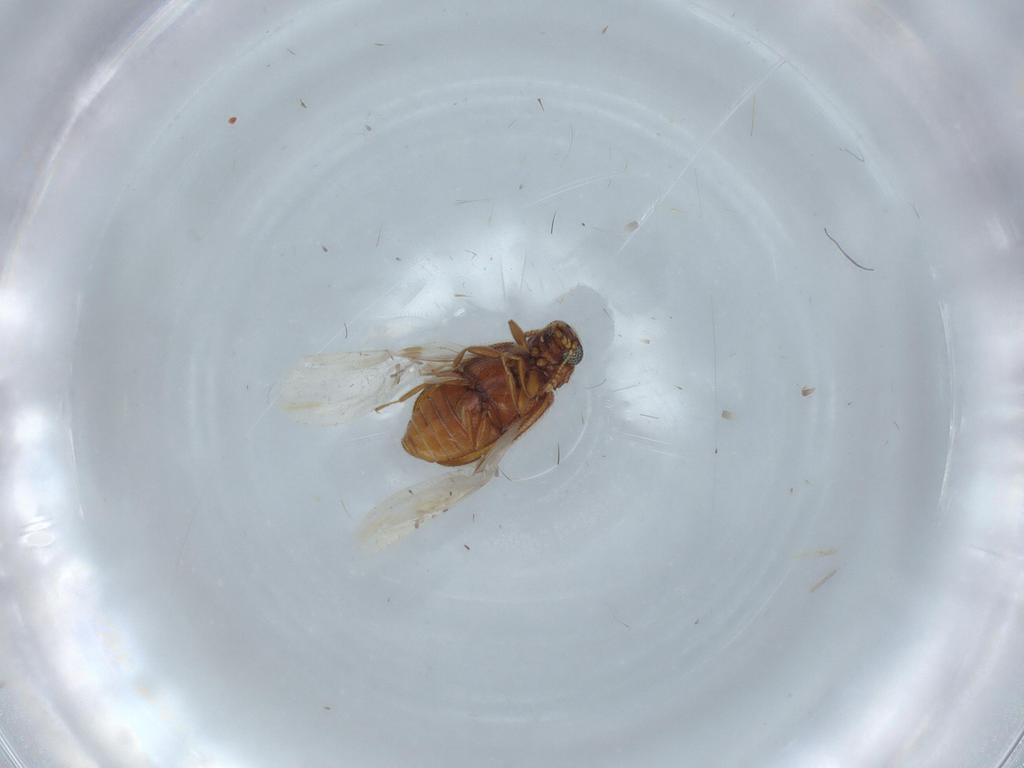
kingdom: Animalia
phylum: Arthropoda
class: Insecta
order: Coleoptera
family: Latridiidae
